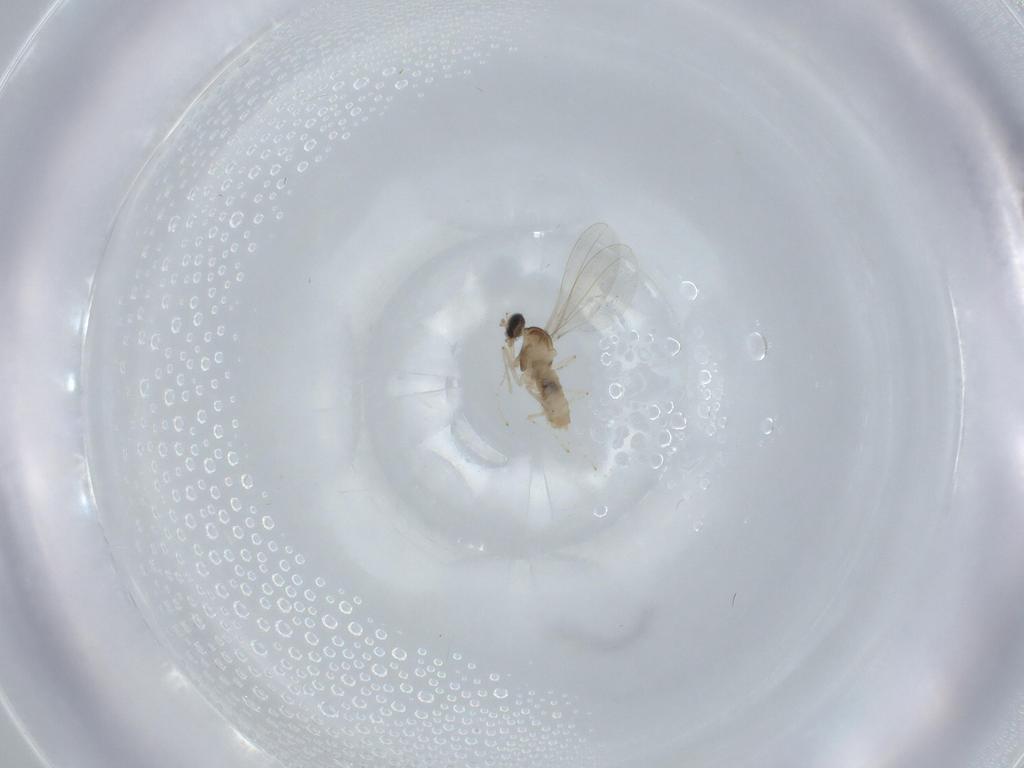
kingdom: Animalia
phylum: Arthropoda
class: Insecta
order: Diptera
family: Cecidomyiidae
